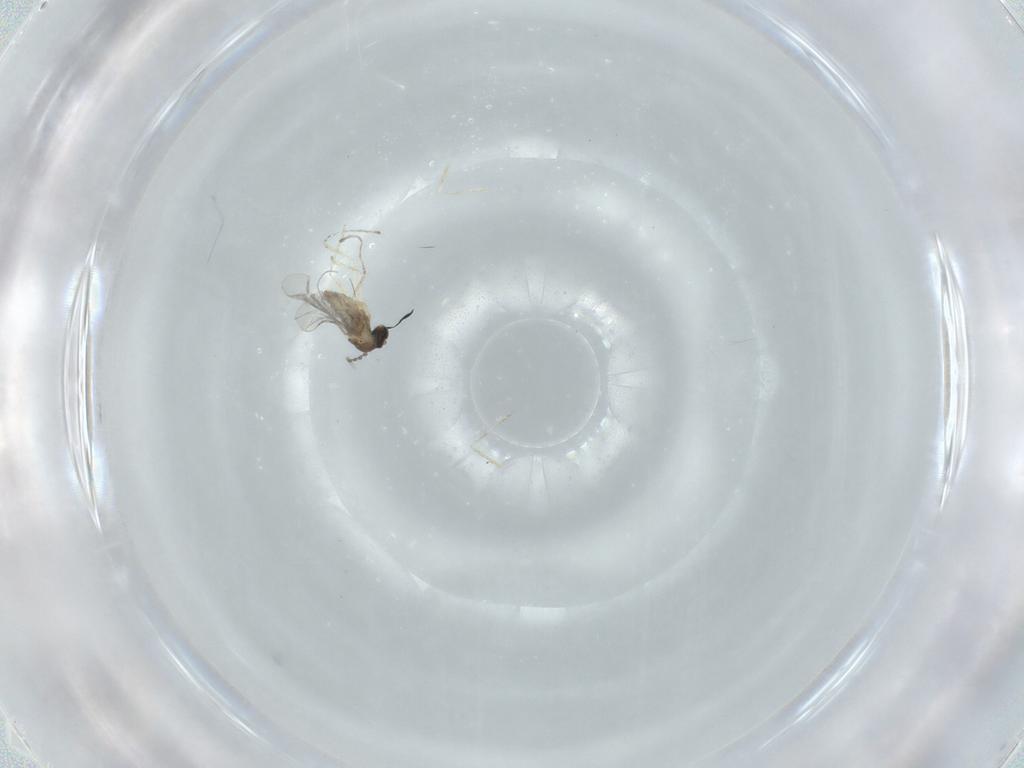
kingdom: Animalia
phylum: Arthropoda
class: Insecta
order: Diptera
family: Cecidomyiidae
